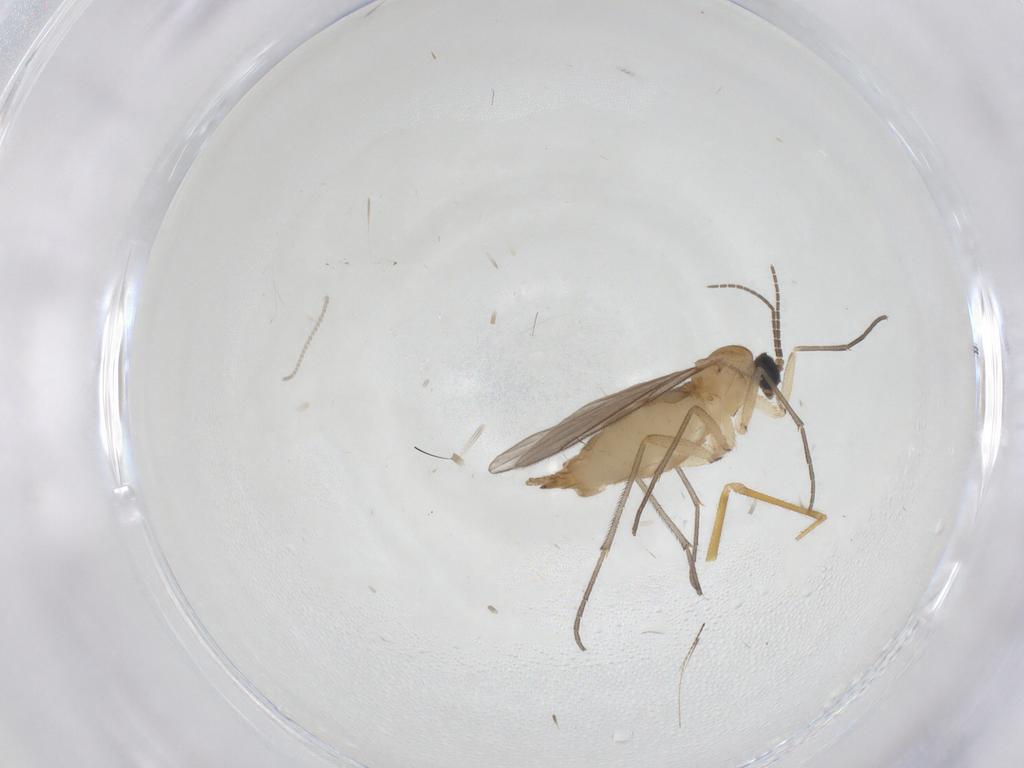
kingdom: Animalia
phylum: Arthropoda
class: Insecta
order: Diptera
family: Sciaridae
